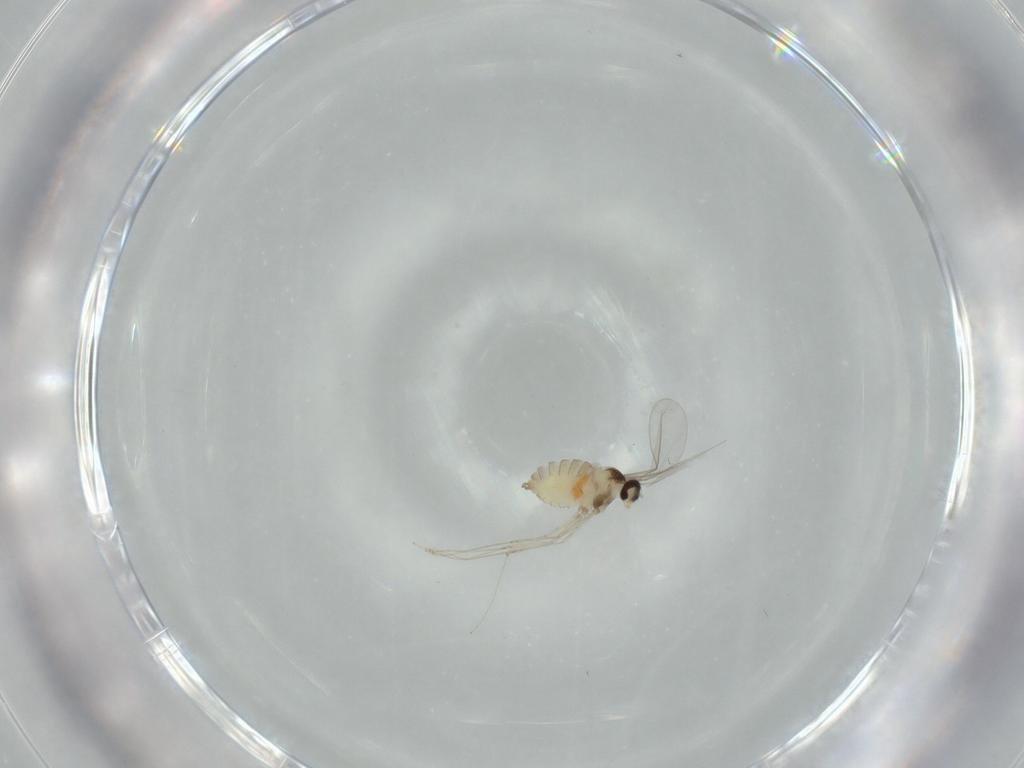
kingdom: Animalia
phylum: Arthropoda
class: Insecta
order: Diptera
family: Cecidomyiidae
